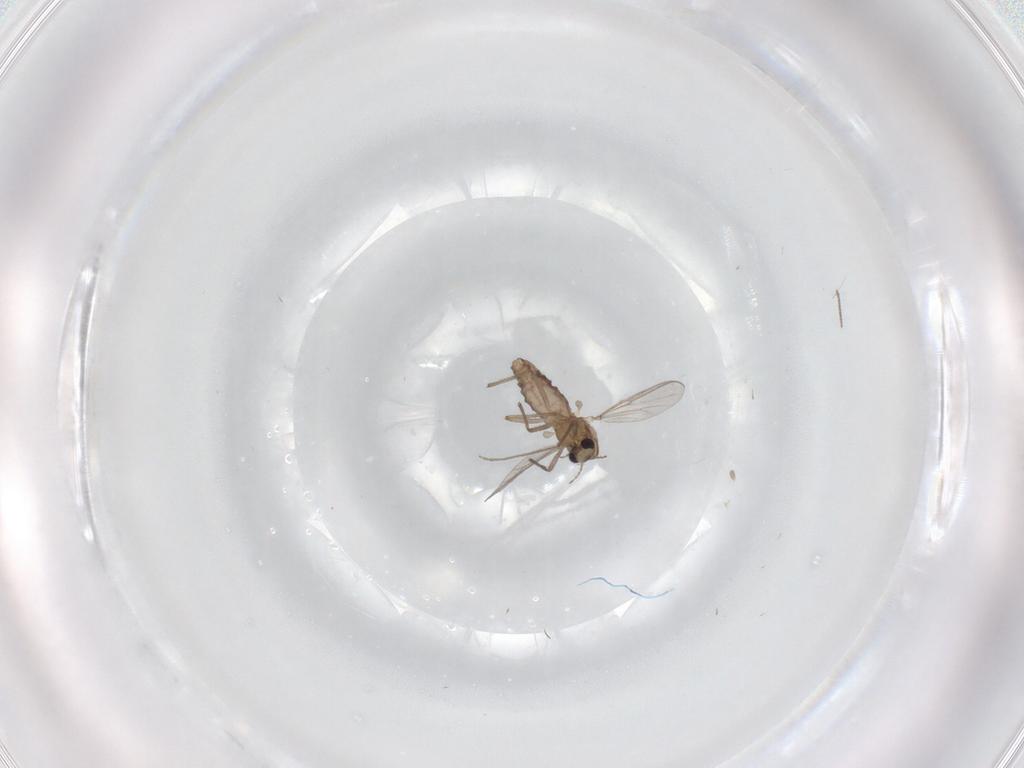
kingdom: Animalia
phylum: Arthropoda
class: Insecta
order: Diptera
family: Chironomidae
